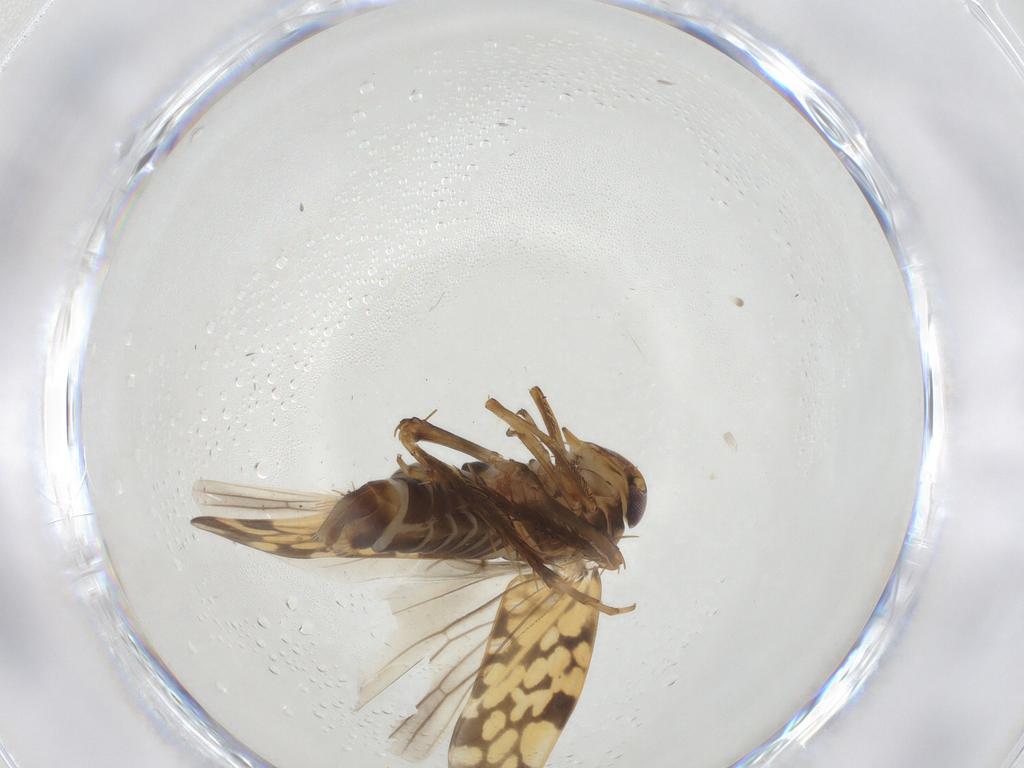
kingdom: Animalia
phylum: Arthropoda
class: Insecta
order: Hemiptera
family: Cicadellidae
